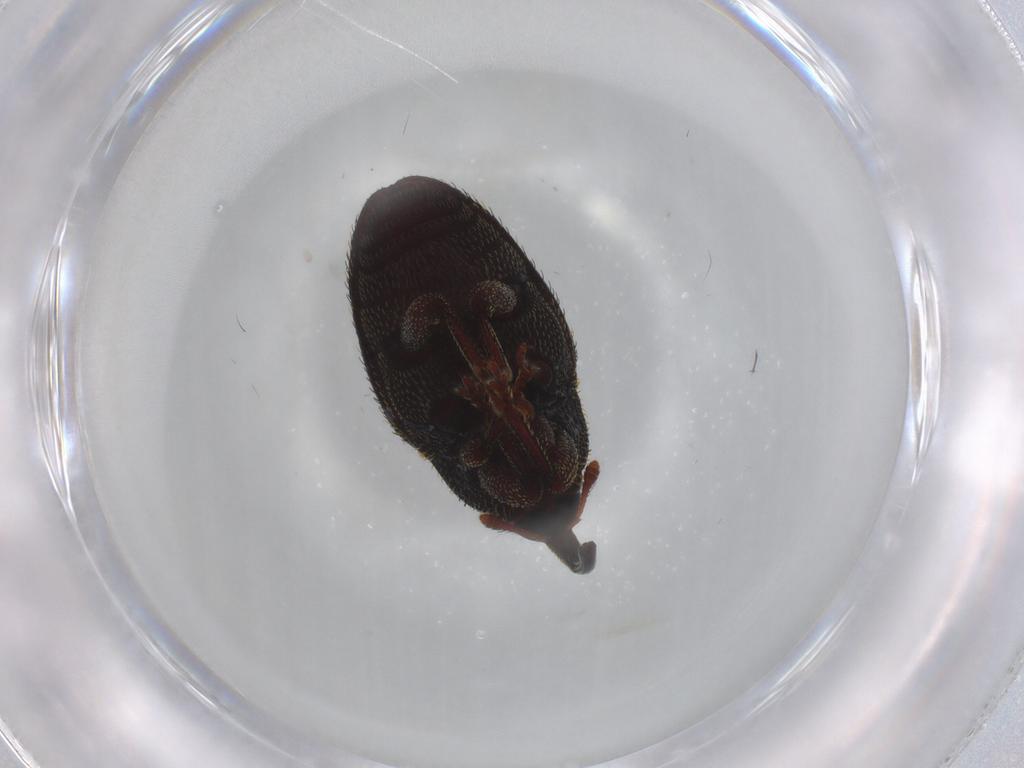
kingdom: Animalia
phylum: Arthropoda
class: Insecta
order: Coleoptera
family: Curculionidae
